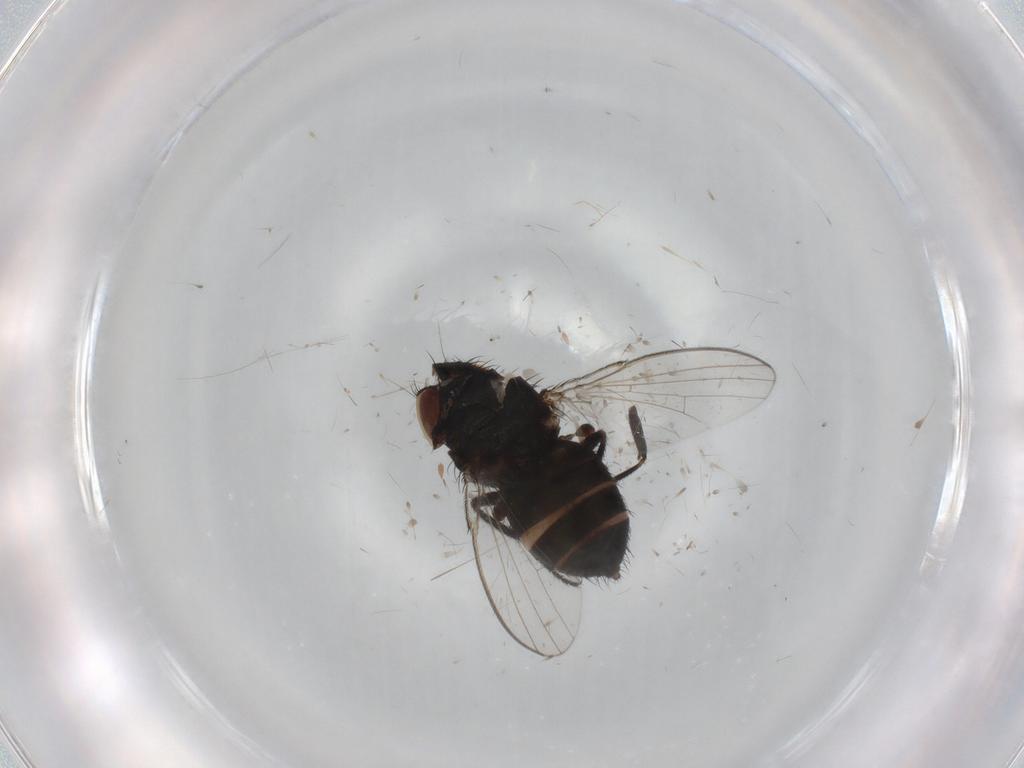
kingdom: Animalia
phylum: Arthropoda
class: Insecta
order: Diptera
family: Milichiidae
